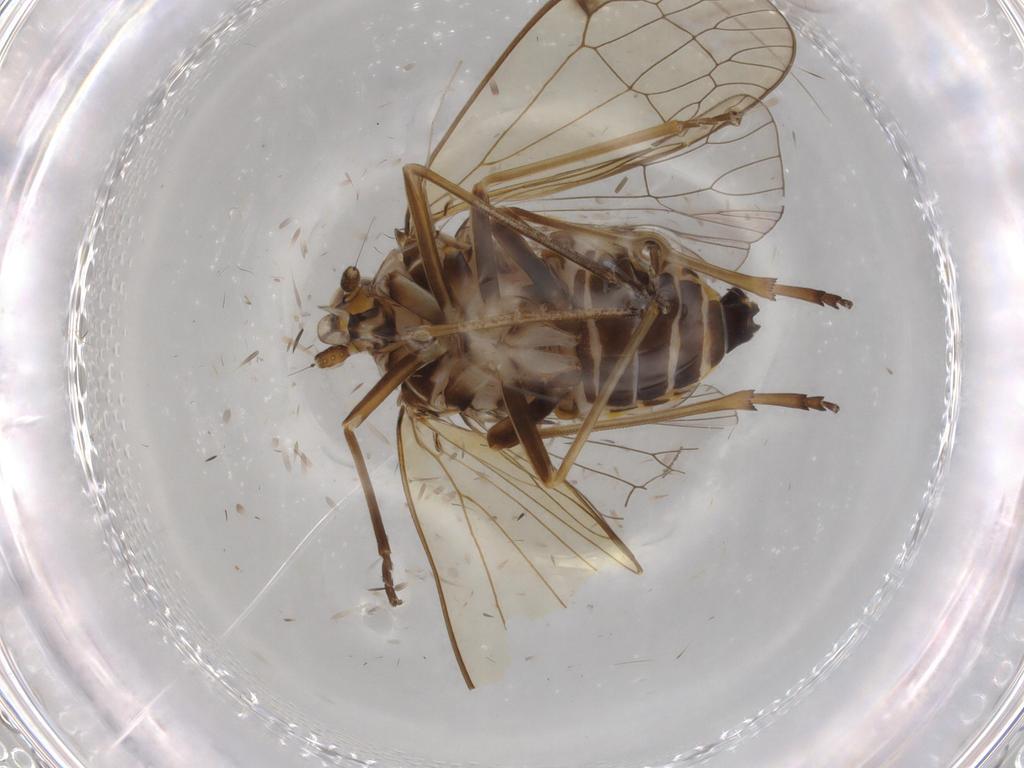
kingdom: Animalia
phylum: Arthropoda
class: Insecta
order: Hemiptera
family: Kinnaridae
